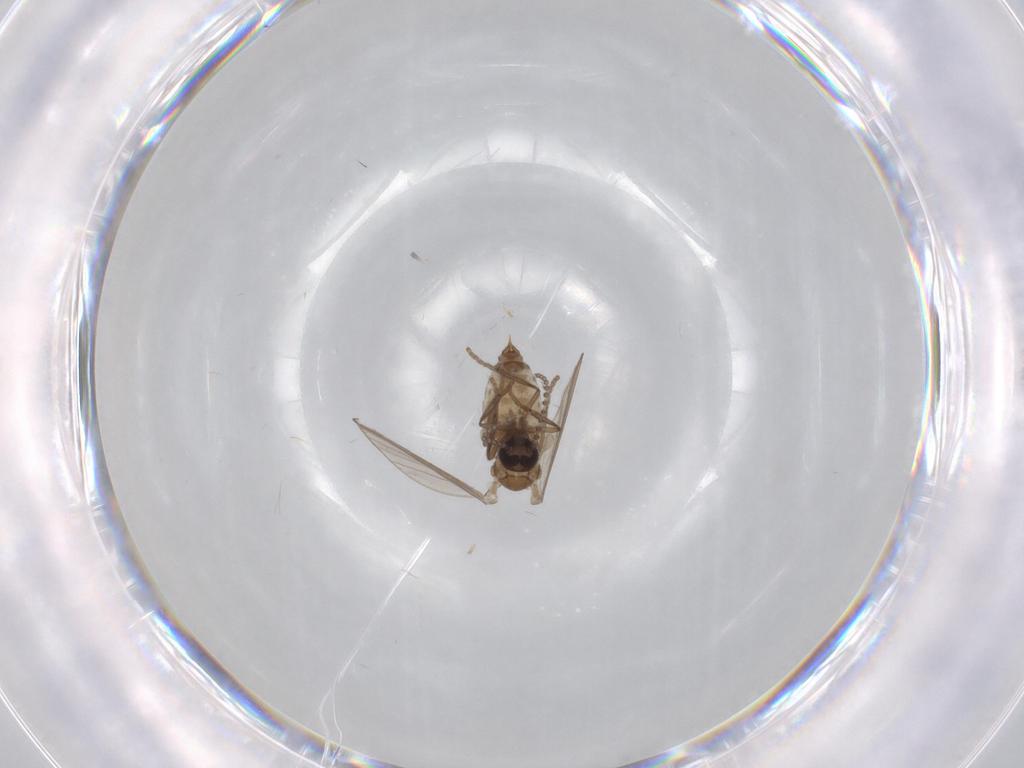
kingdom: Animalia
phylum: Arthropoda
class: Insecta
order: Diptera
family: Psychodidae
